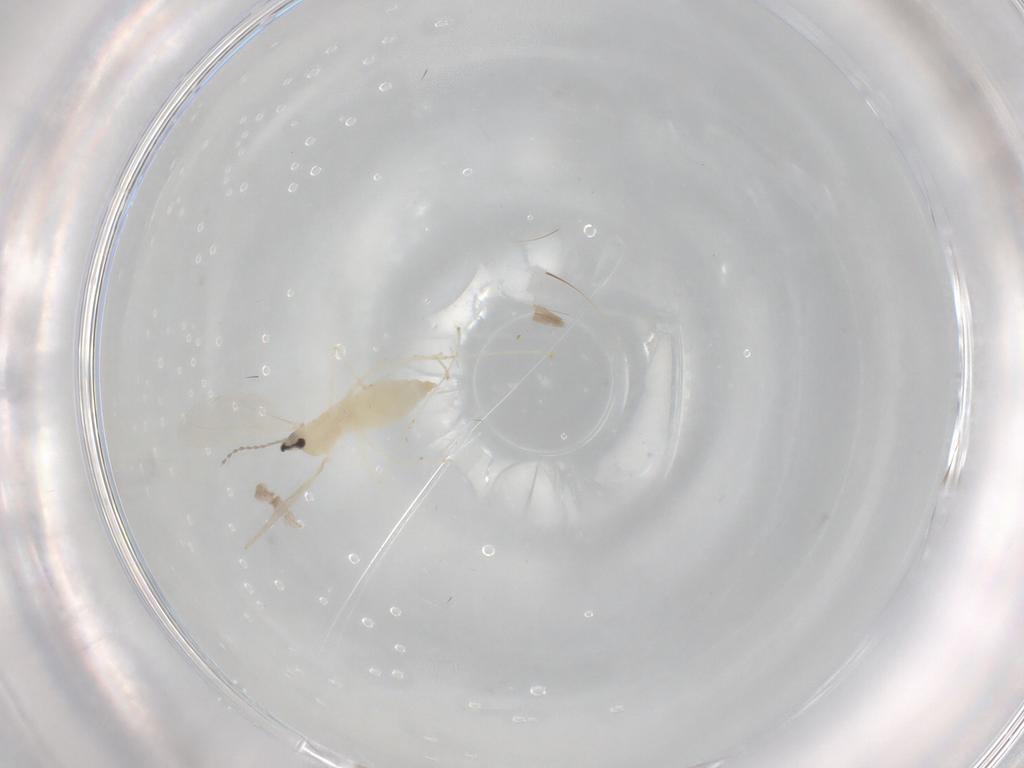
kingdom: Animalia
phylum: Arthropoda
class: Insecta
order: Diptera
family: Cecidomyiidae
